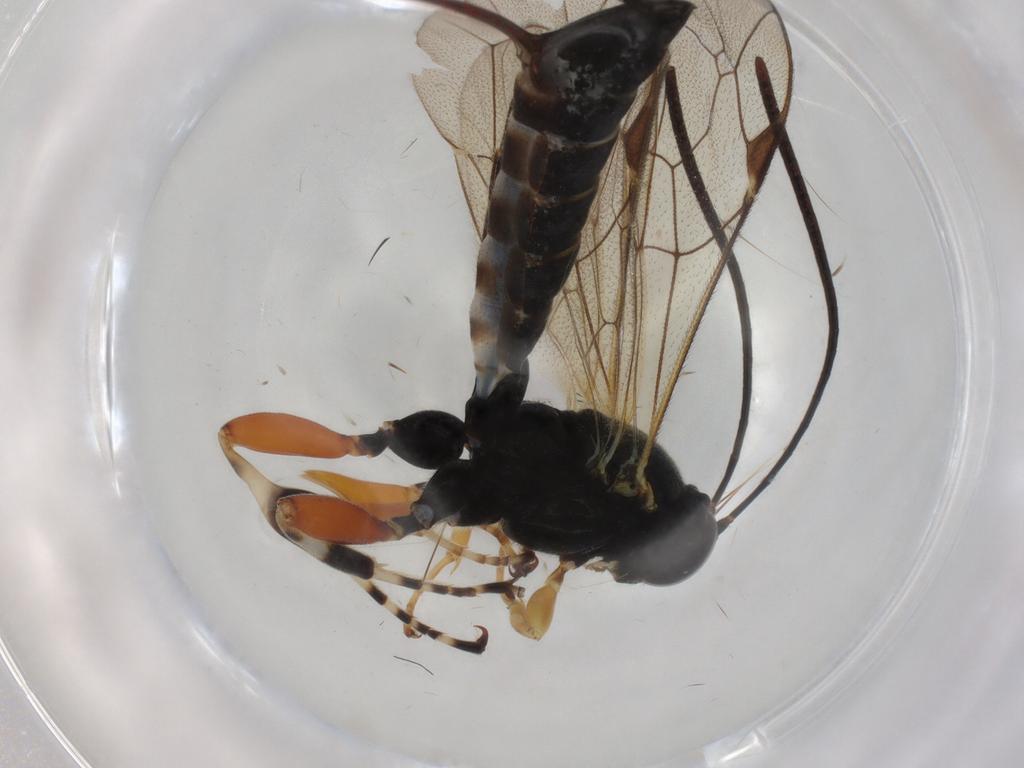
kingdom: Animalia
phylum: Arthropoda
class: Insecta
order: Hymenoptera
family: Ichneumonidae
